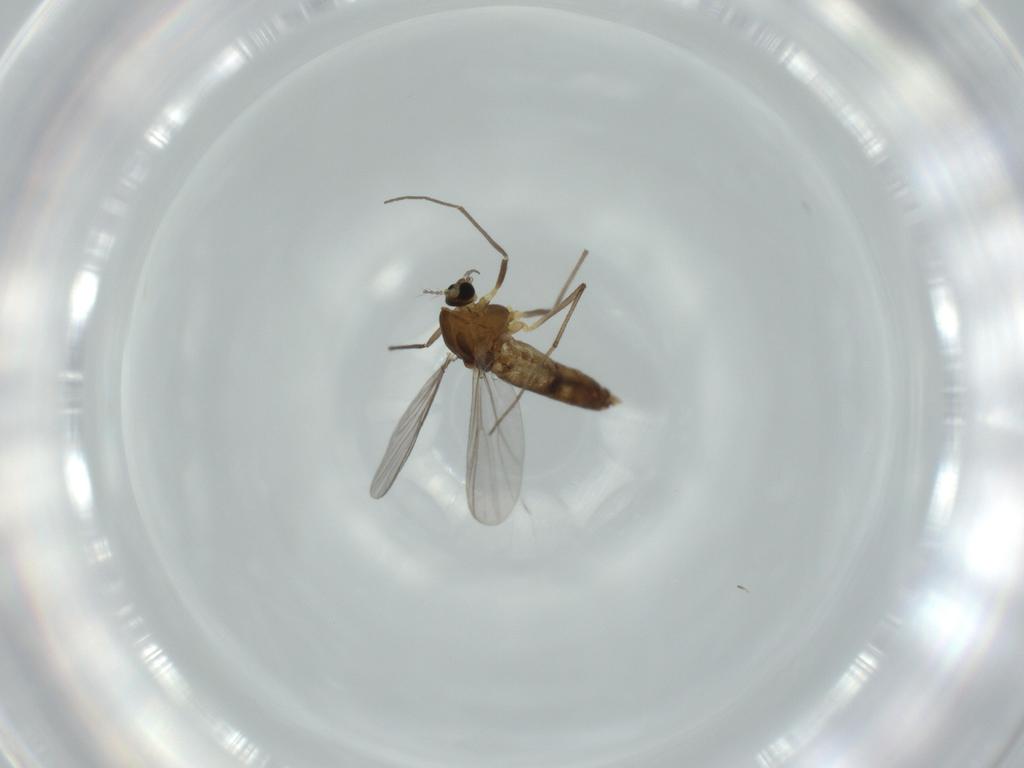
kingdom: Animalia
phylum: Arthropoda
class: Insecta
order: Diptera
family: Chironomidae
